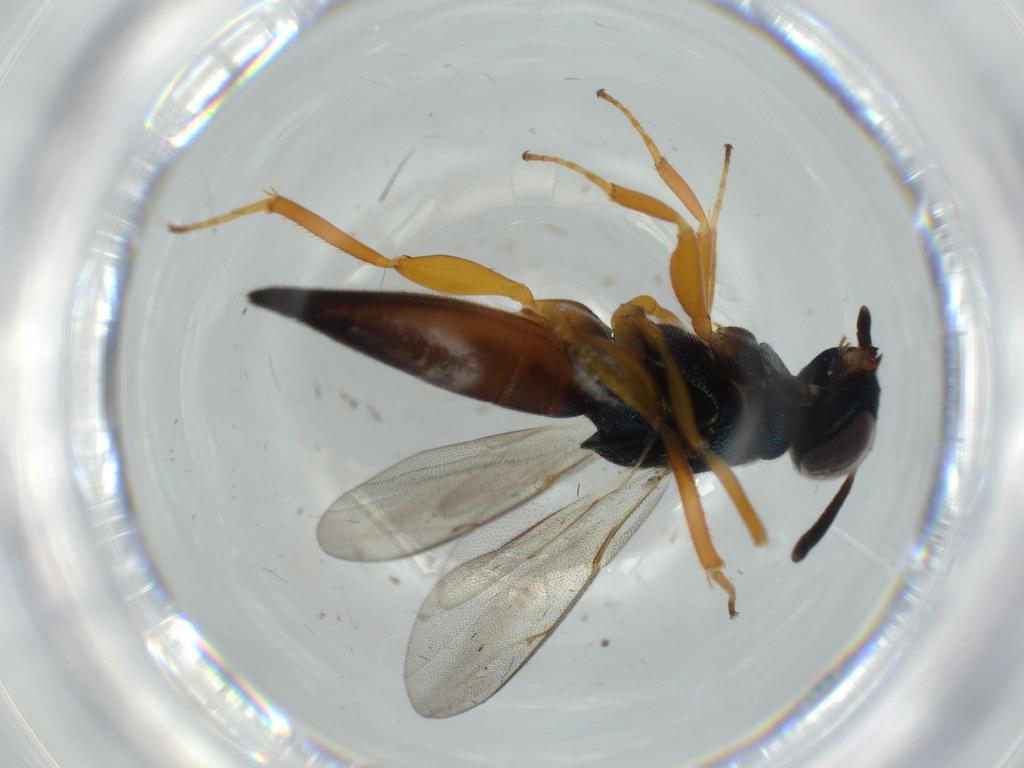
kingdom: Animalia
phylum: Arthropoda
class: Insecta
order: Hymenoptera
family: Lyciscidae
